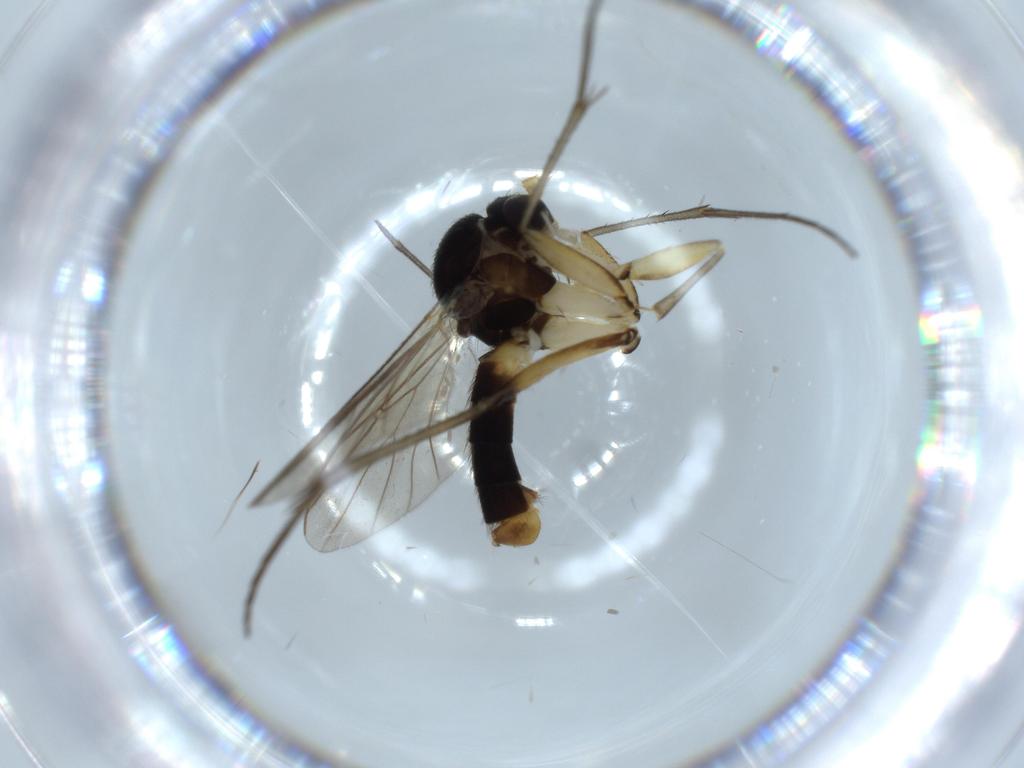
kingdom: Animalia
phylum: Arthropoda
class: Insecta
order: Diptera
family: Mycetophilidae
